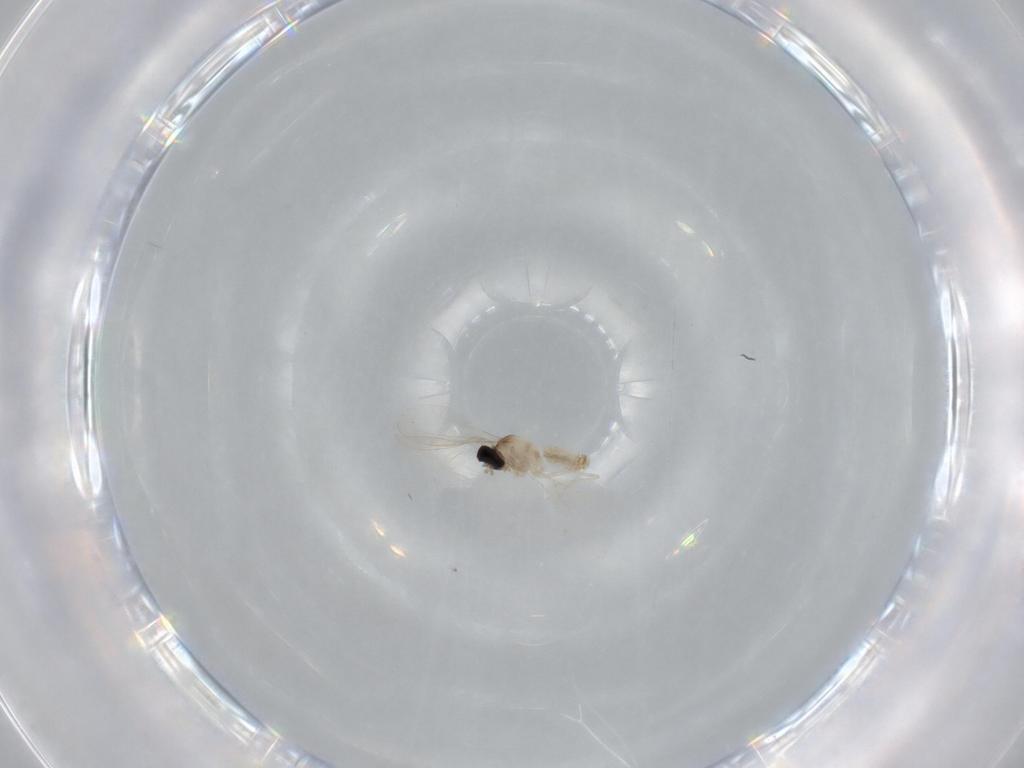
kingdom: Animalia
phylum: Arthropoda
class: Insecta
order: Diptera
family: Cecidomyiidae
